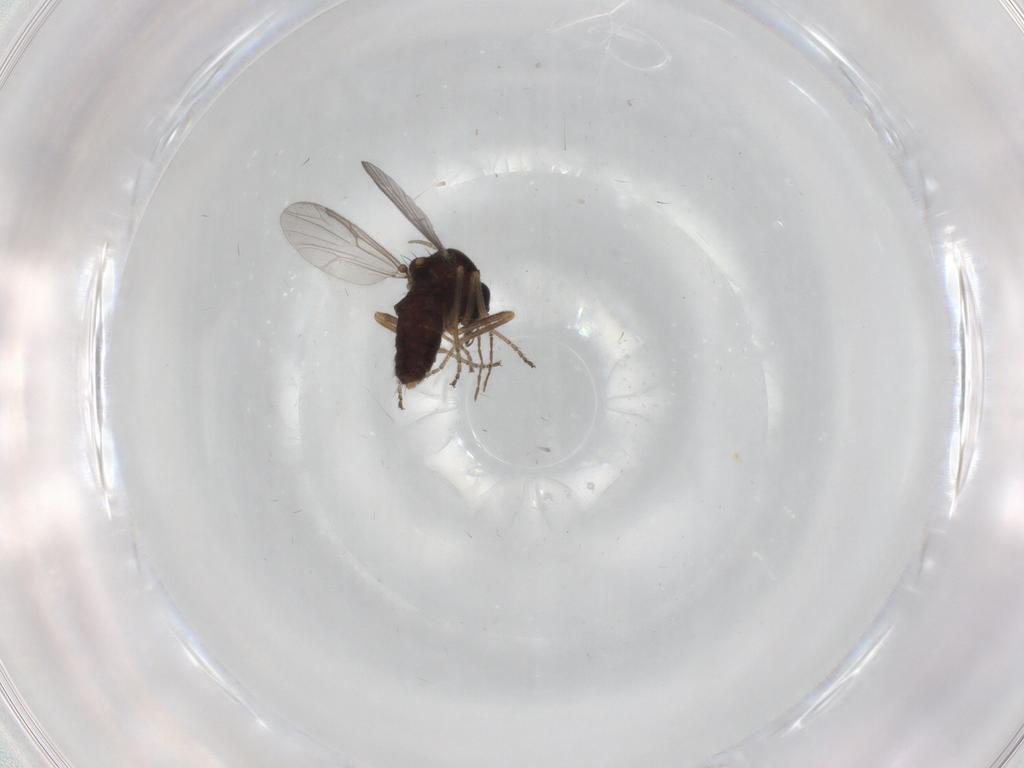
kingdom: Animalia
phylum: Arthropoda
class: Insecta
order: Diptera
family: Ceratopogonidae
